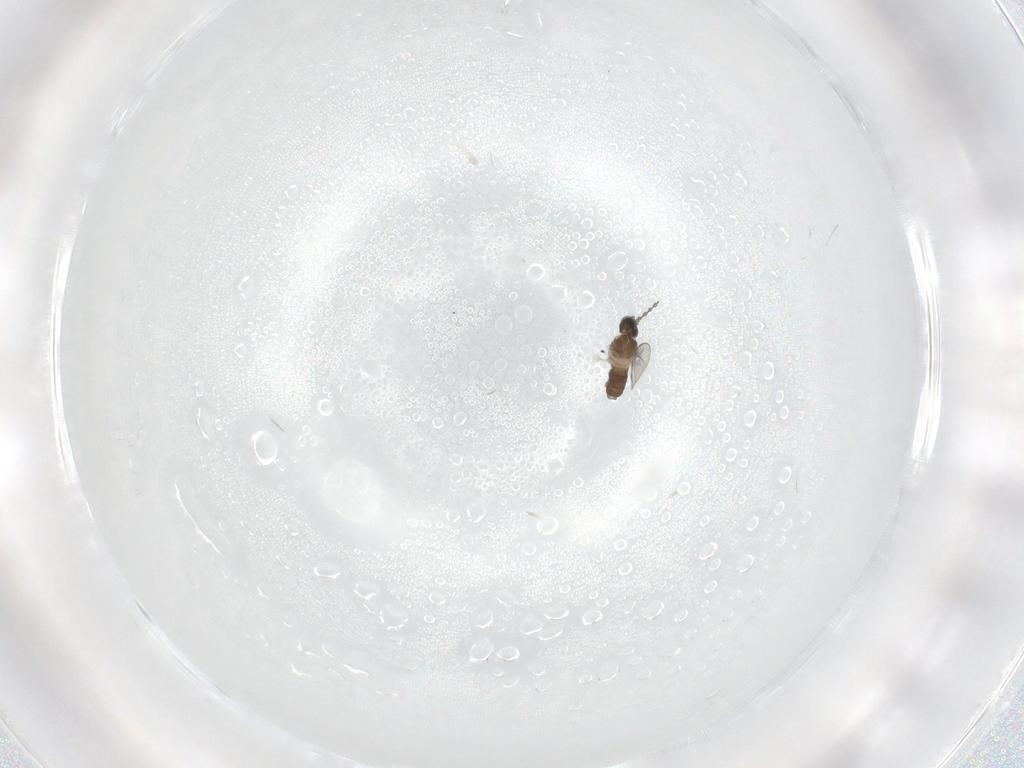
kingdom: Animalia
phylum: Arthropoda
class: Insecta
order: Diptera
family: Cecidomyiidae
